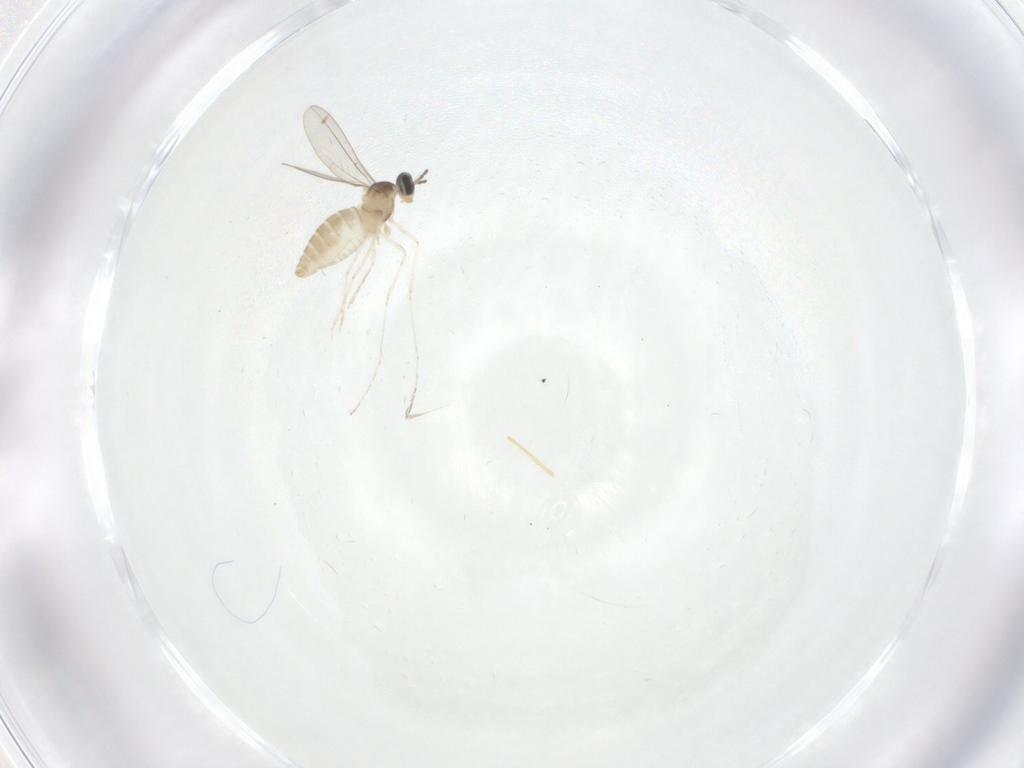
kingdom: Animalia
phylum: Arthropoda
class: Insecta
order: Diptera
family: Cecidomyiidae
